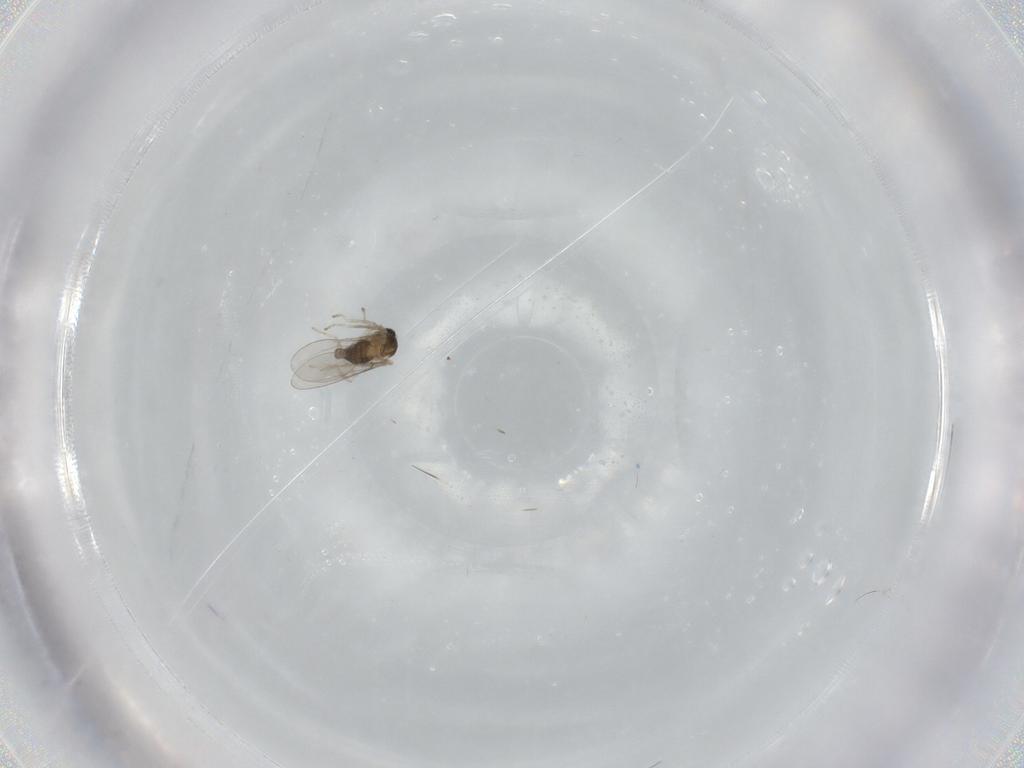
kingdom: Animalia
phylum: Arthropoda
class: Insecta
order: Diptera
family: Cecidomyiidae
